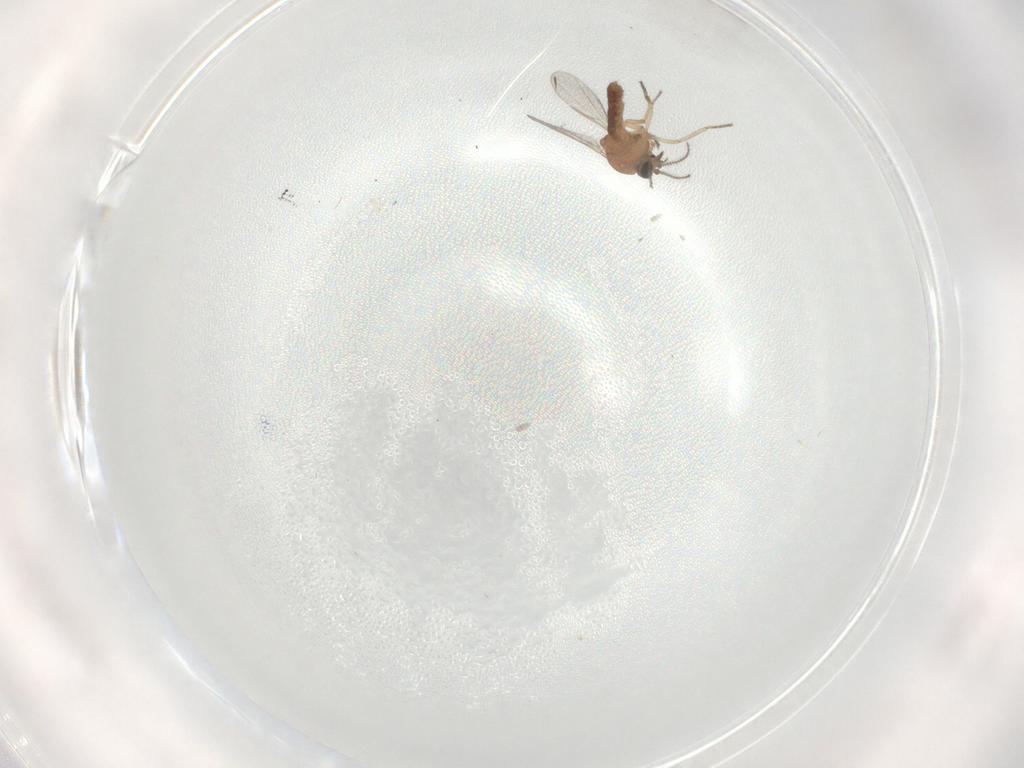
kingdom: Animalia
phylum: Arthropoda
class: Insecta
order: Diptera
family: Ceratopogonidae
